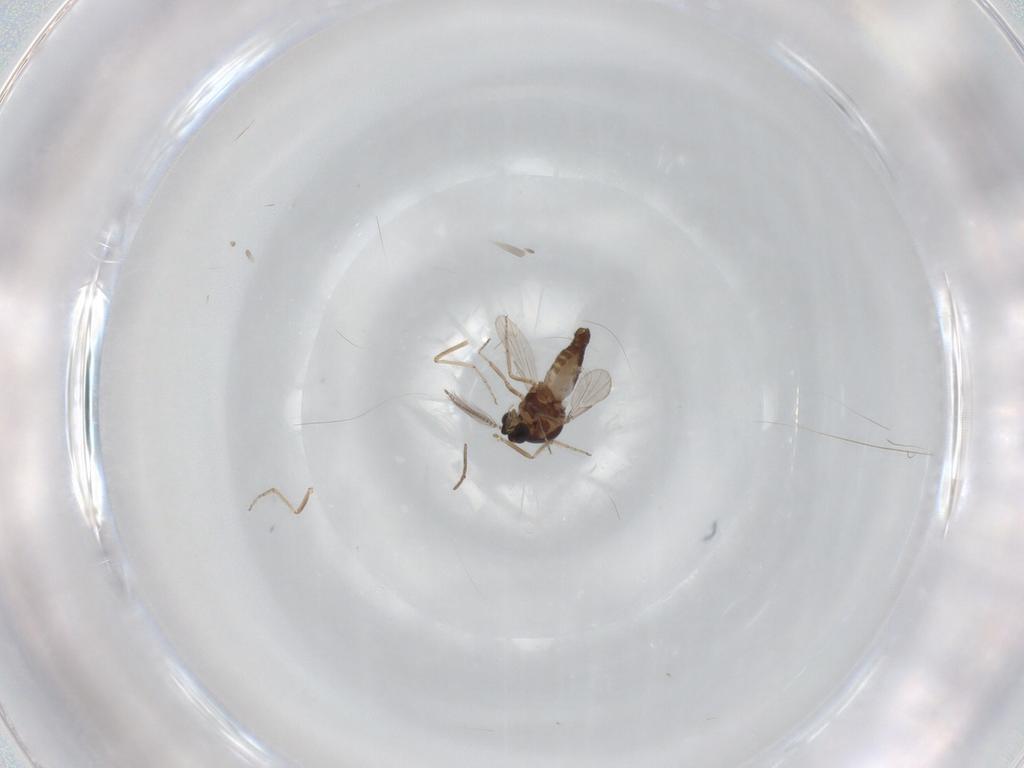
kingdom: Animalia
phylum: Arthropoda
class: Insecta
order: Diptera
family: Ceratopogonidae
